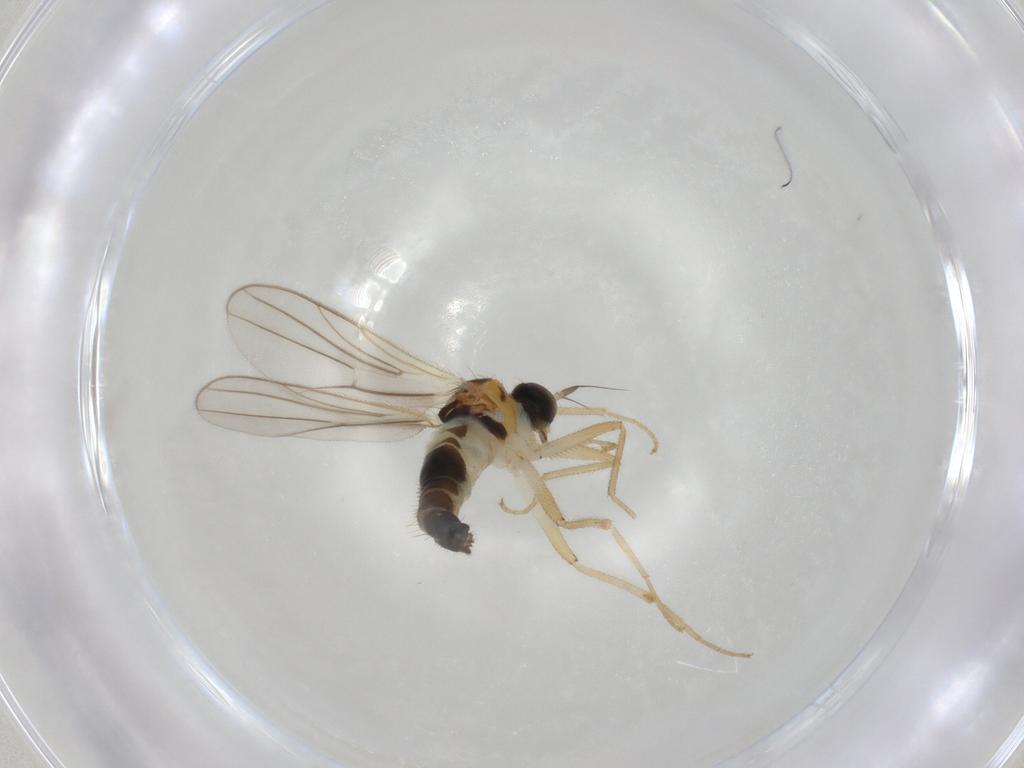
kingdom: Animalia
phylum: Arthropoda
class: Insecta
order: Diptera
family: Hybotidae
